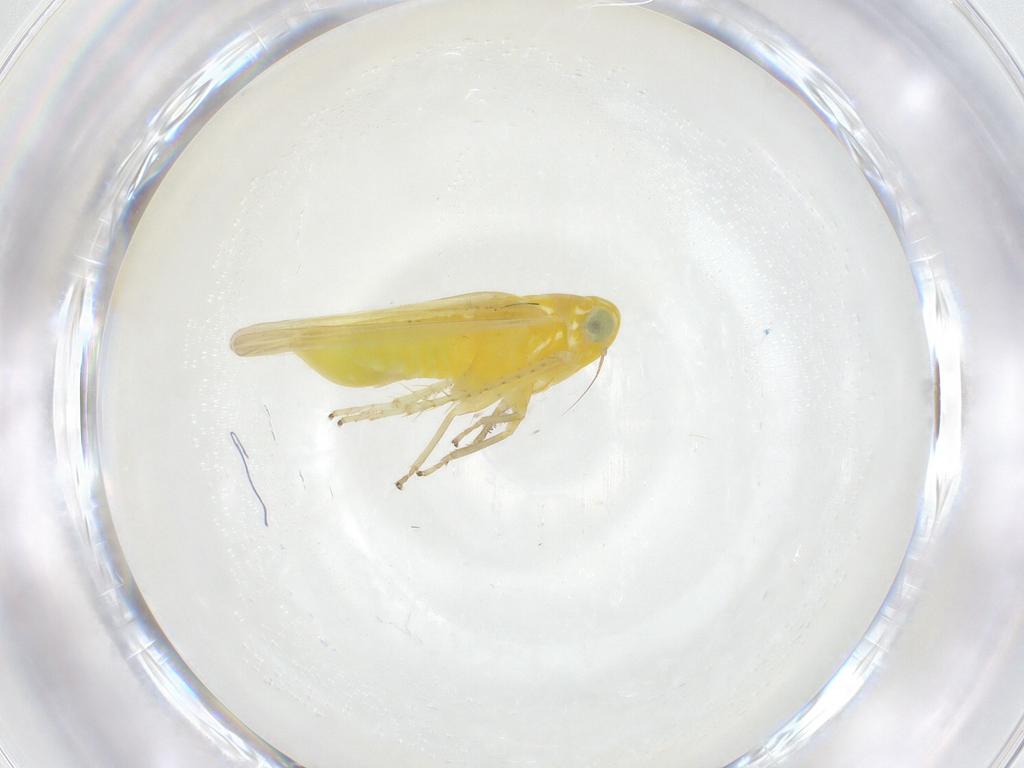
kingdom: Animalia
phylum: Arthropoda
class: Insecta
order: Hemiptera
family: Cicadellidae
